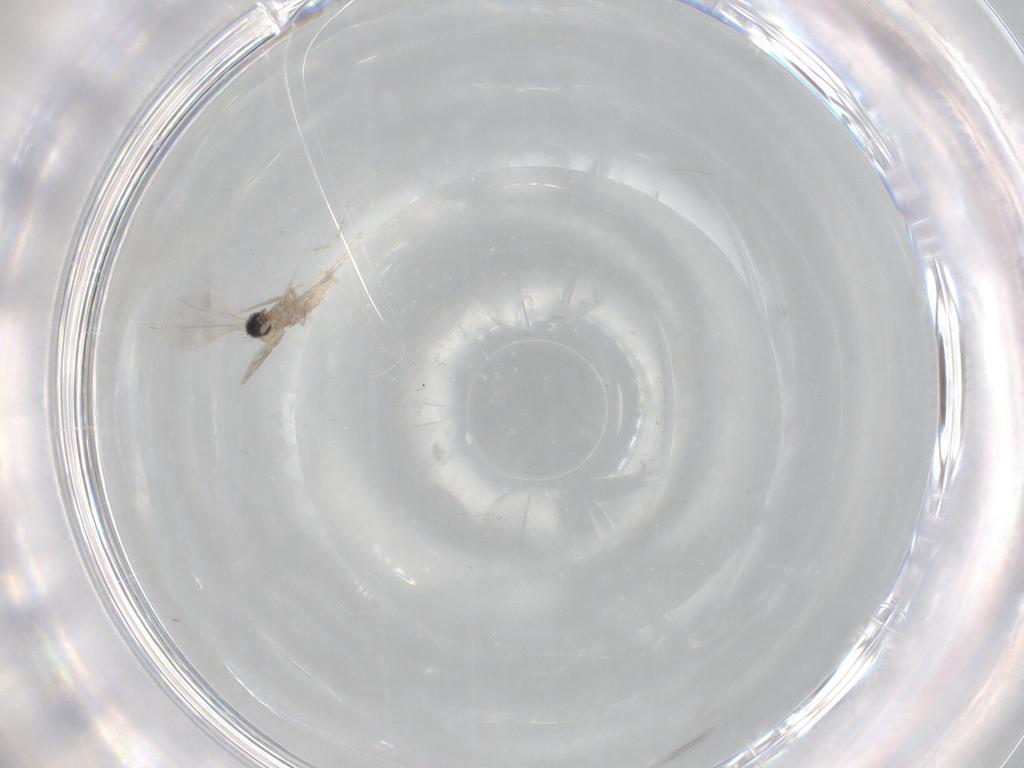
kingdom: Animalia
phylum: Arthropoda
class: Insecta
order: Diptera
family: Cecidomyiidae
